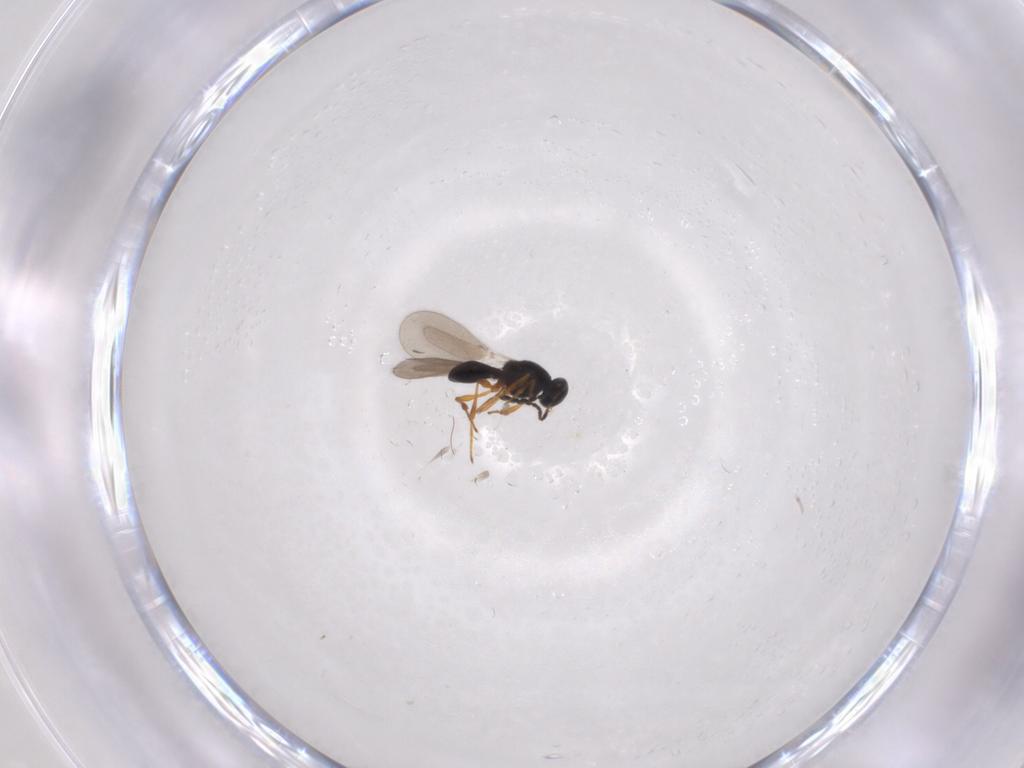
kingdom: Animalia
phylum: Arthropoda
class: Insecta
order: Hymenoptera
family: Platygastridae
